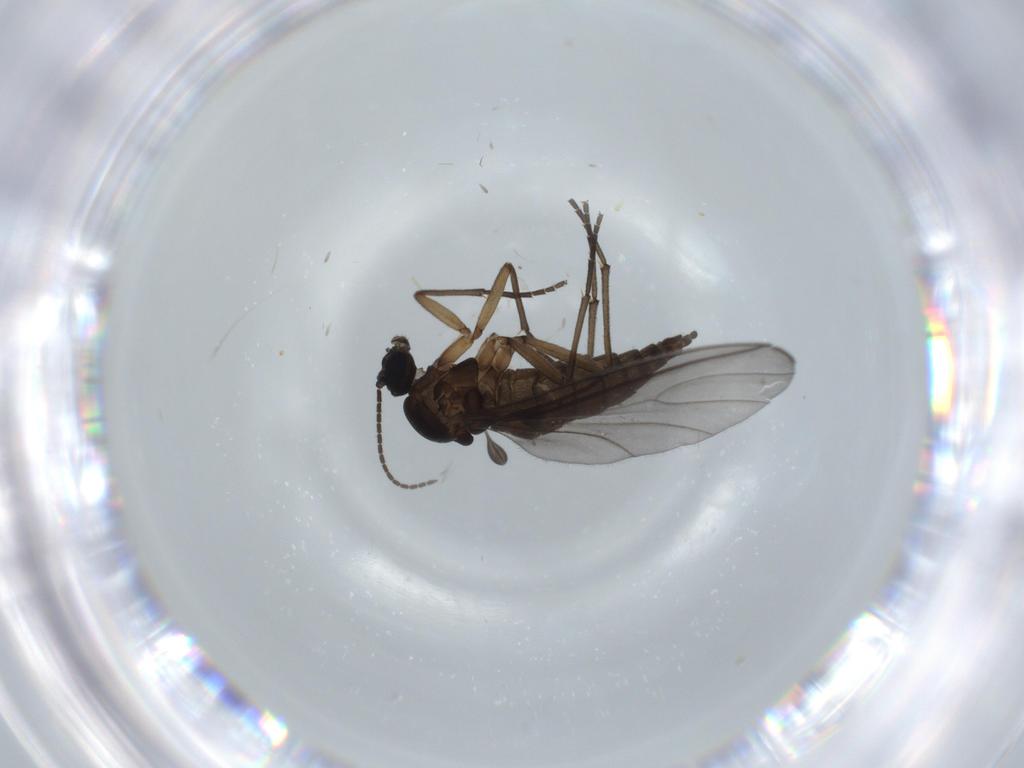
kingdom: Animalia
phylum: Arthropoda
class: Insecta
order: Diptera
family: Sciaridae
